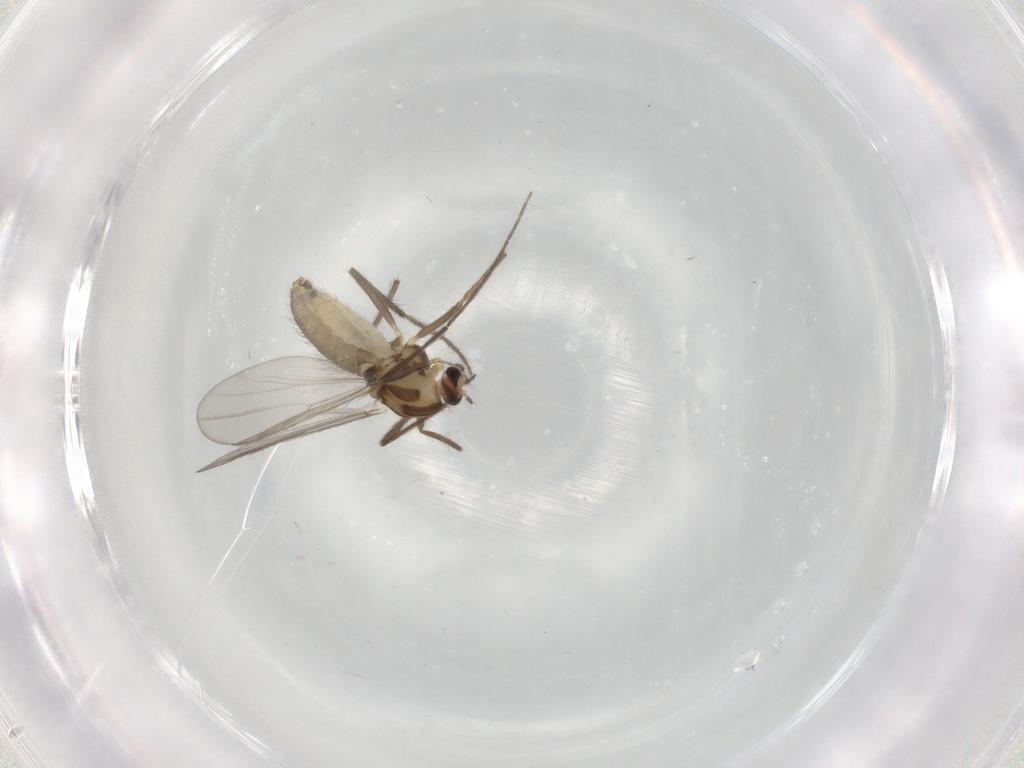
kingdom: Animalia
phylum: Arthropoda
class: Insecta
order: Diptera
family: Chironomidae
